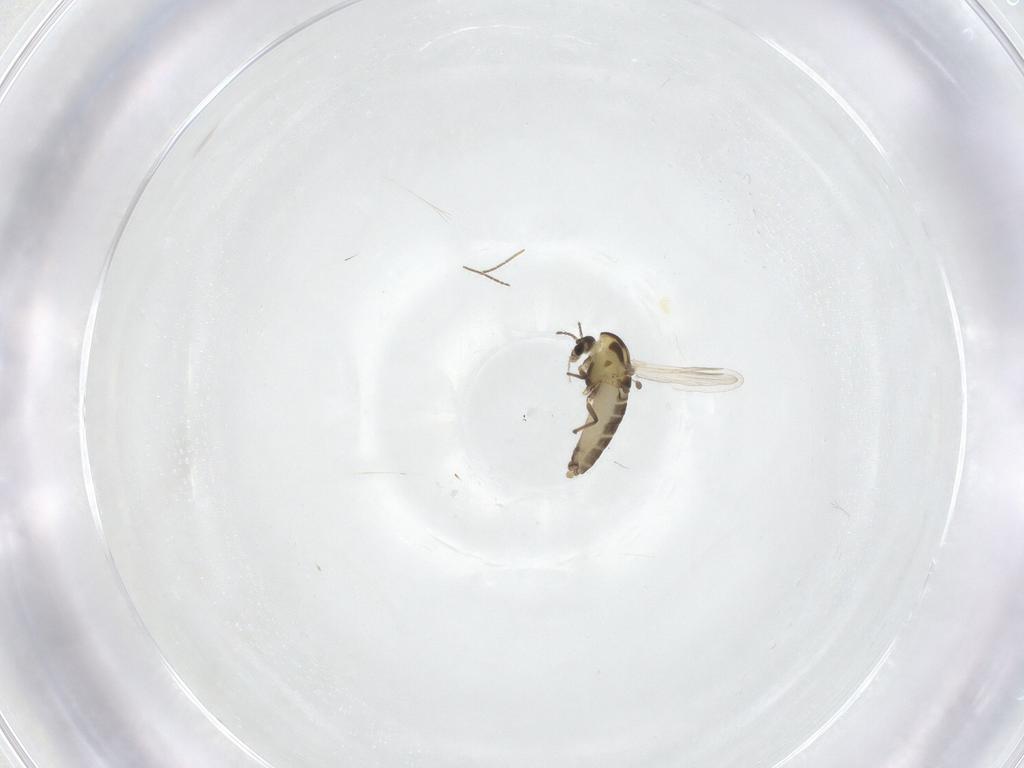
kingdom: Animalia
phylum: Arthropoda
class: Insecta
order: Diptera
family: Chironomidae
